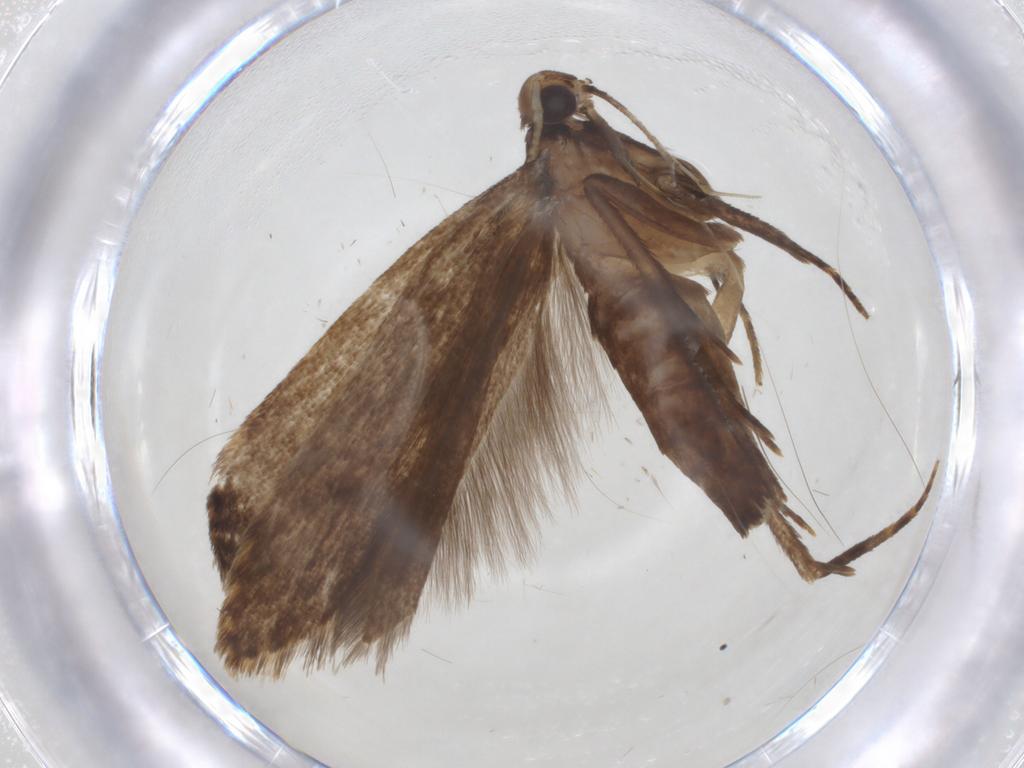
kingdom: Animalia
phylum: Arthropoda
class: Insecta
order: Lepidoptera
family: Gelechiidae
